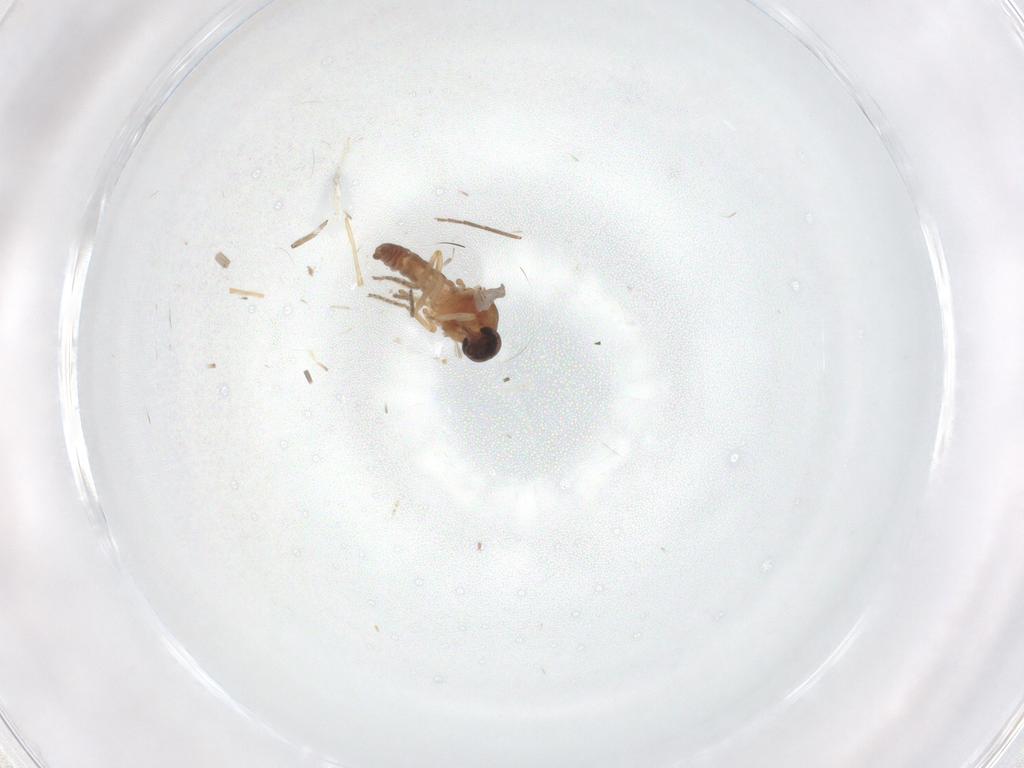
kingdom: Animalia
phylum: Arthropoda
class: Insecta
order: Diptera
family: Ceratopogonidae
